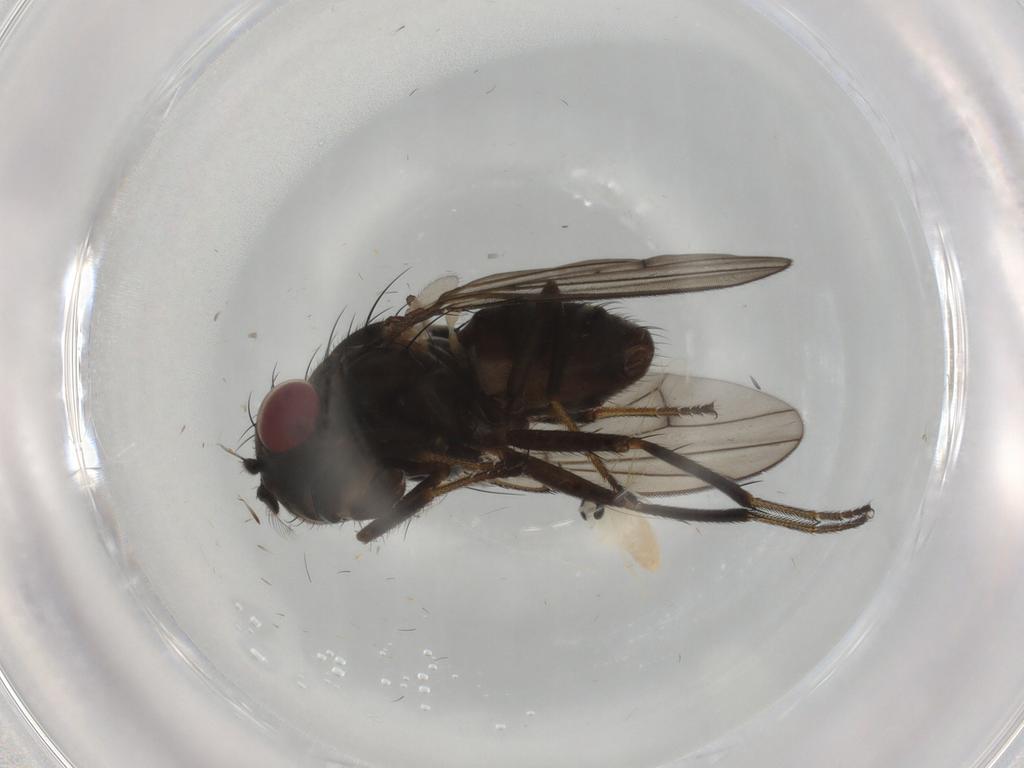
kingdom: Animalia
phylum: Arthropoda
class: Insecta
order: Diptera
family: Ephydridae
